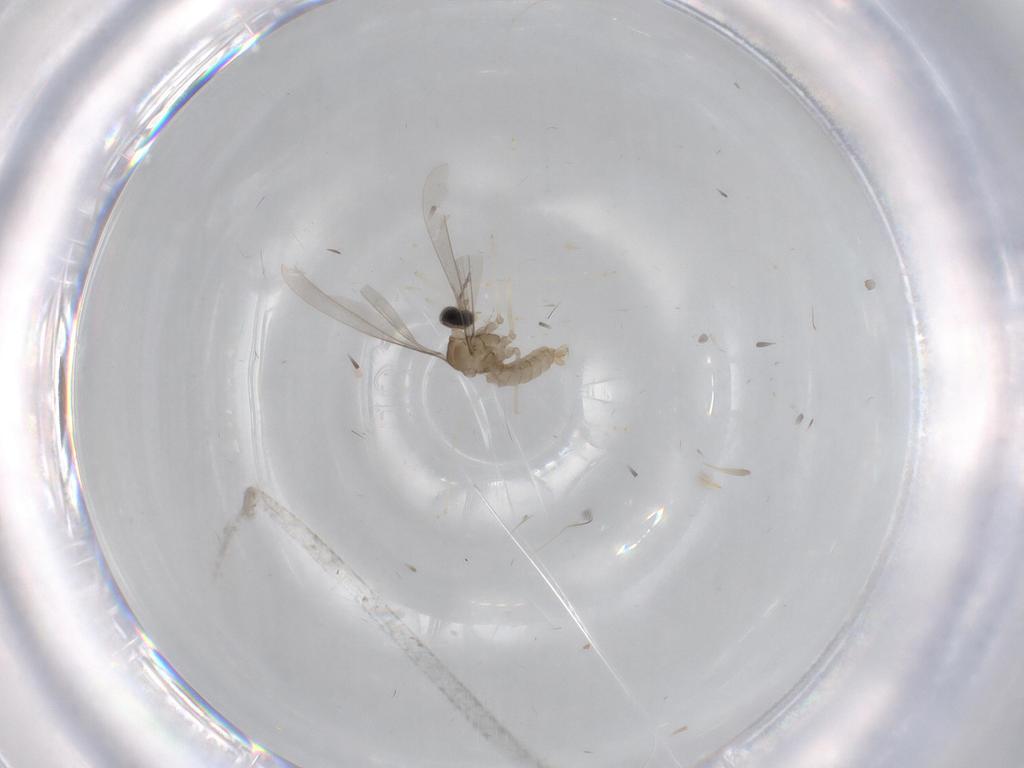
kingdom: Animalia
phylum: Arthropoda
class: Insecta
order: Diptera
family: Cecidomyiidae
